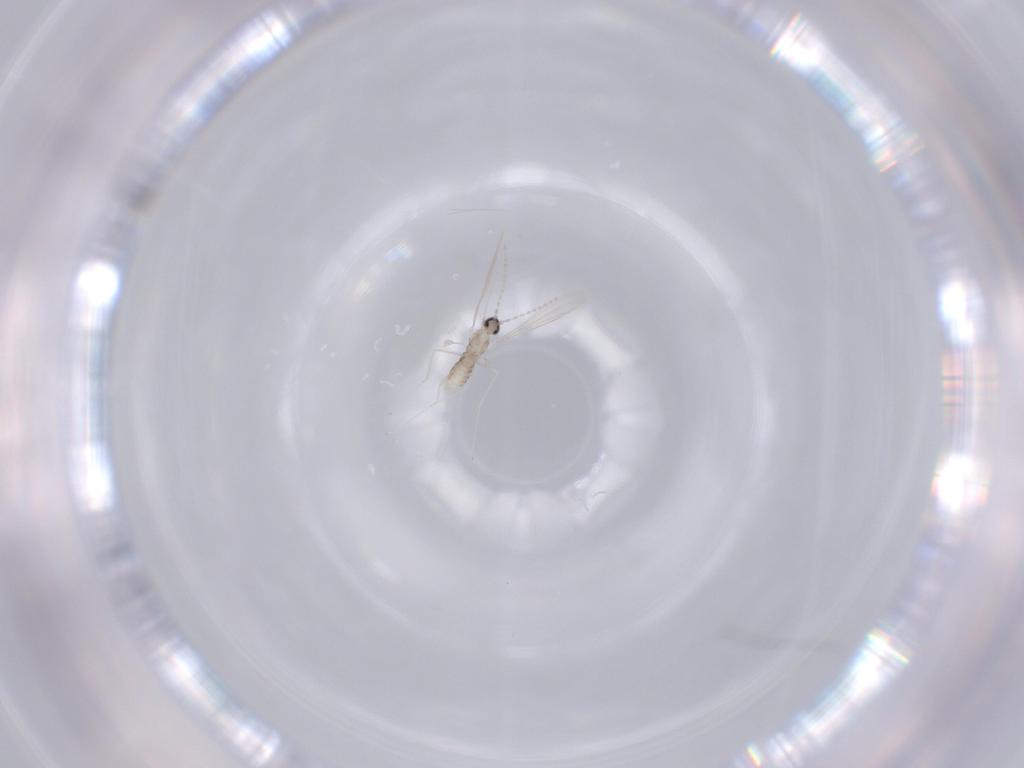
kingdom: Animalia
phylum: Arthropoda
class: Insecta
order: Diptera
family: Cecidomyiidae
